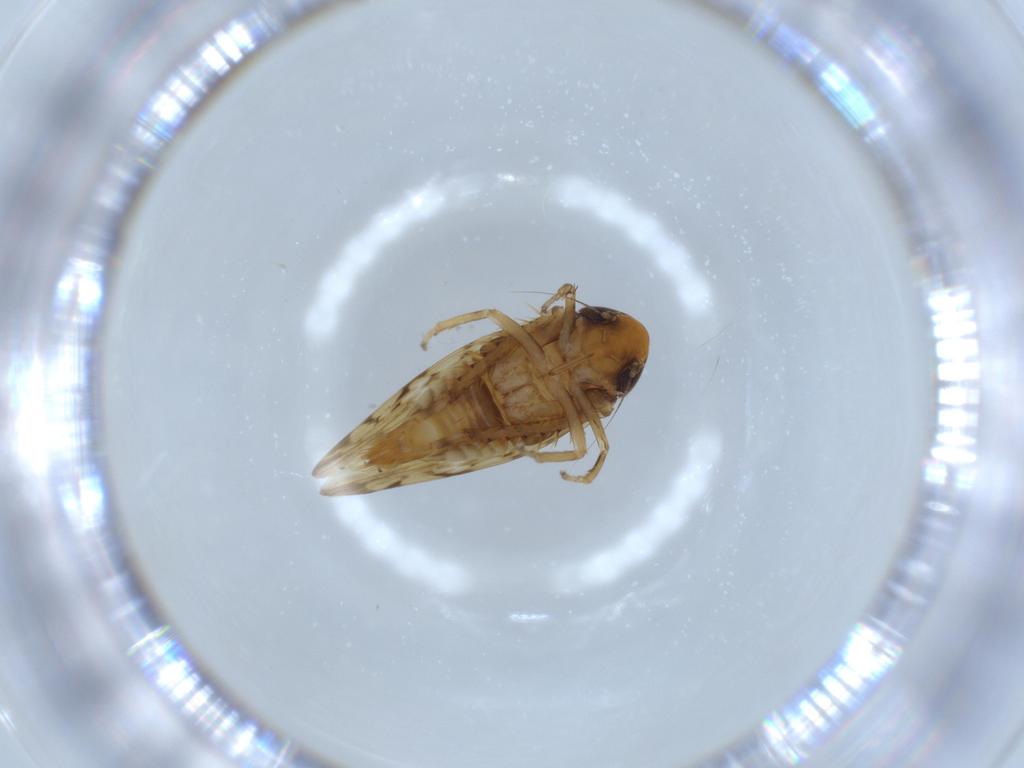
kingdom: Animalia
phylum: Arthropoda
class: Insecta
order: Hemiptera
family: Cicadellidae
